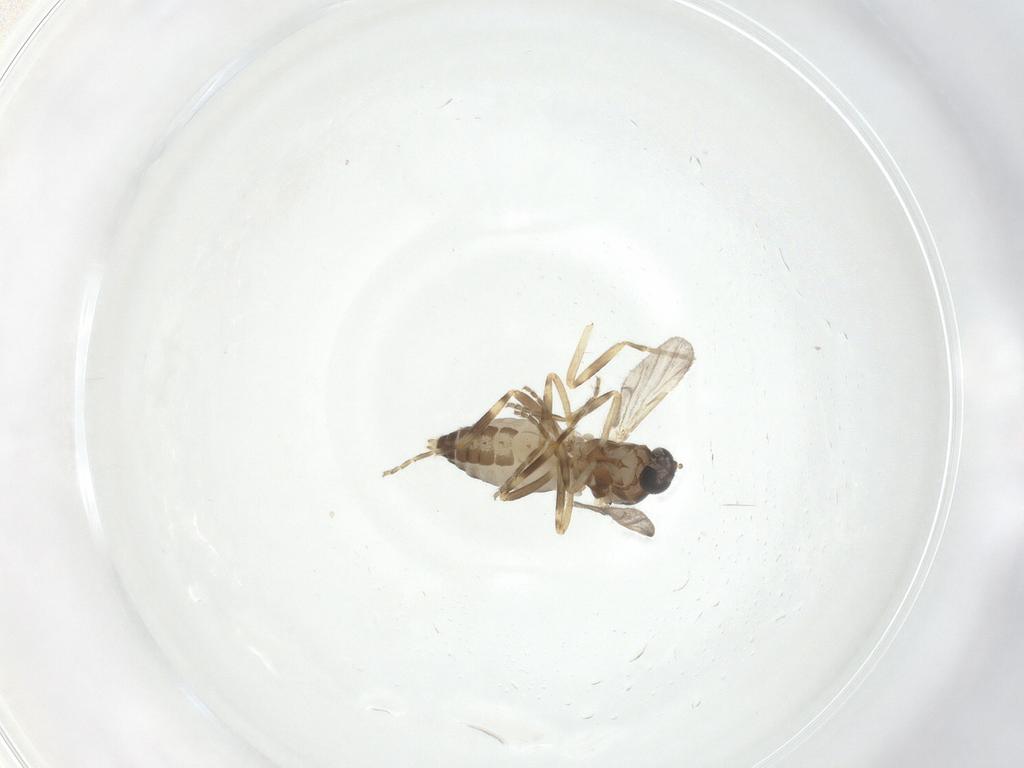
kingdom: Animalia
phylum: Arthropoda
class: Insecta
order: Diptera
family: Ceratopogonidae
